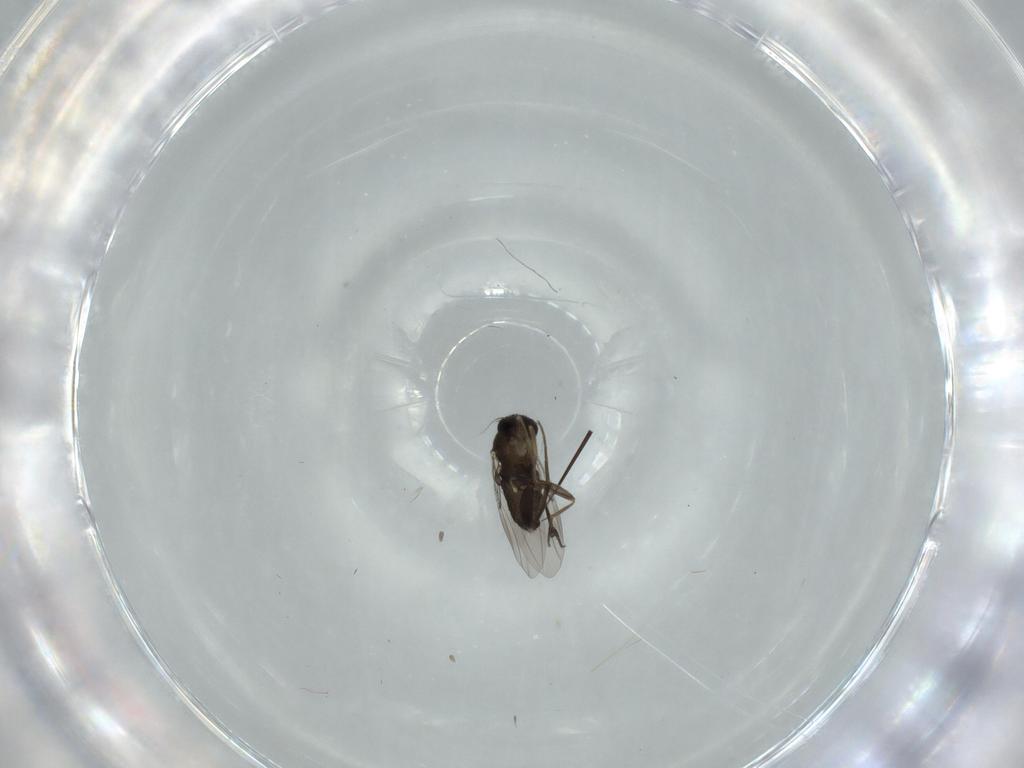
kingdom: Animalia
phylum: Arthropoda
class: Insecta
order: Diptera
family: Phoridae
